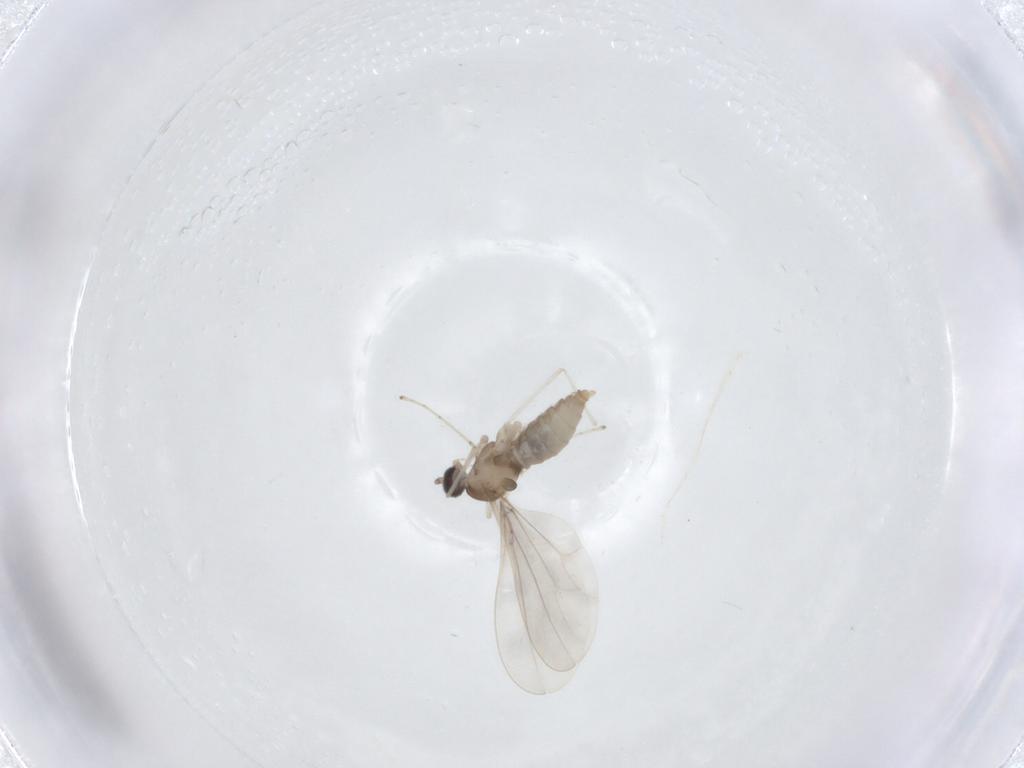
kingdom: Animalia
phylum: Arthropoda
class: Insecta
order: Diptera
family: Cecidomyiidae
